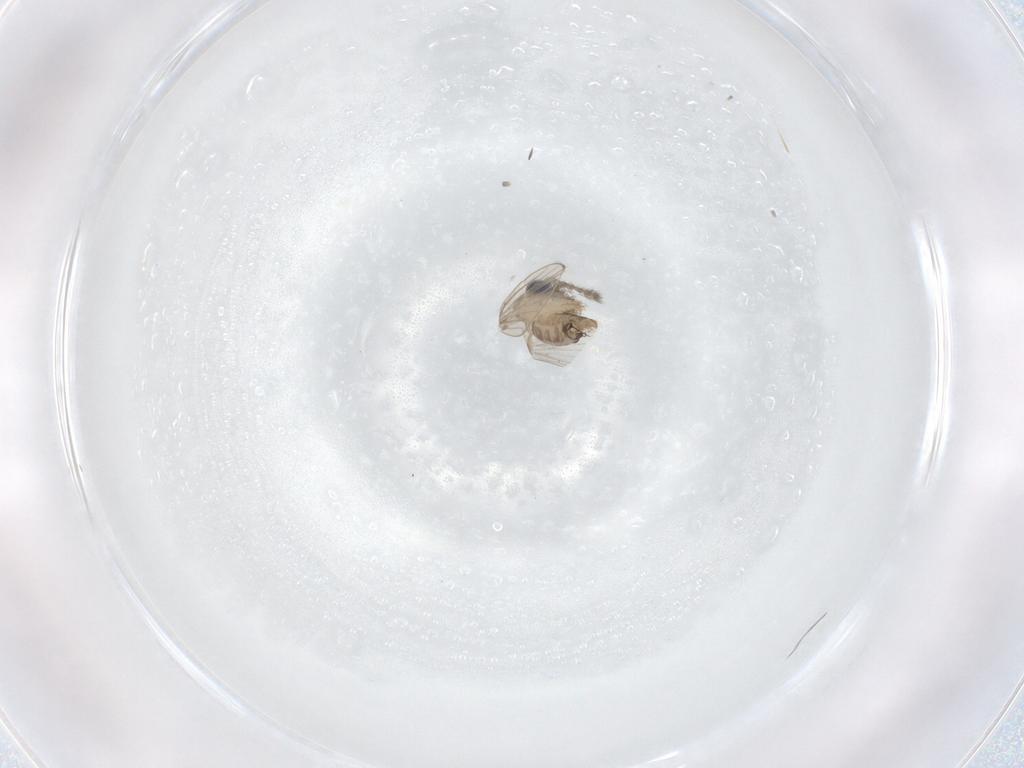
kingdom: Animalia
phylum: Arthropoda
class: Insecta
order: Diptera
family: Psychodidae
